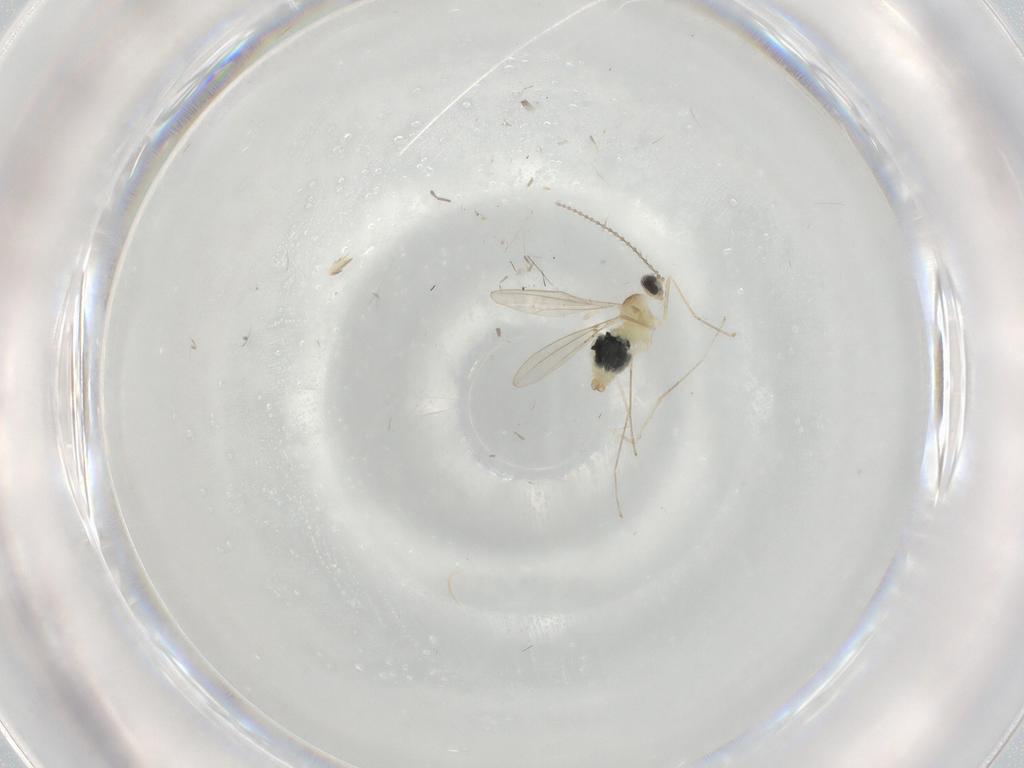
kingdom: Animalia
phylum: Arthropoda
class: Insecta
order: Diptera
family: Cecidomyiidae
